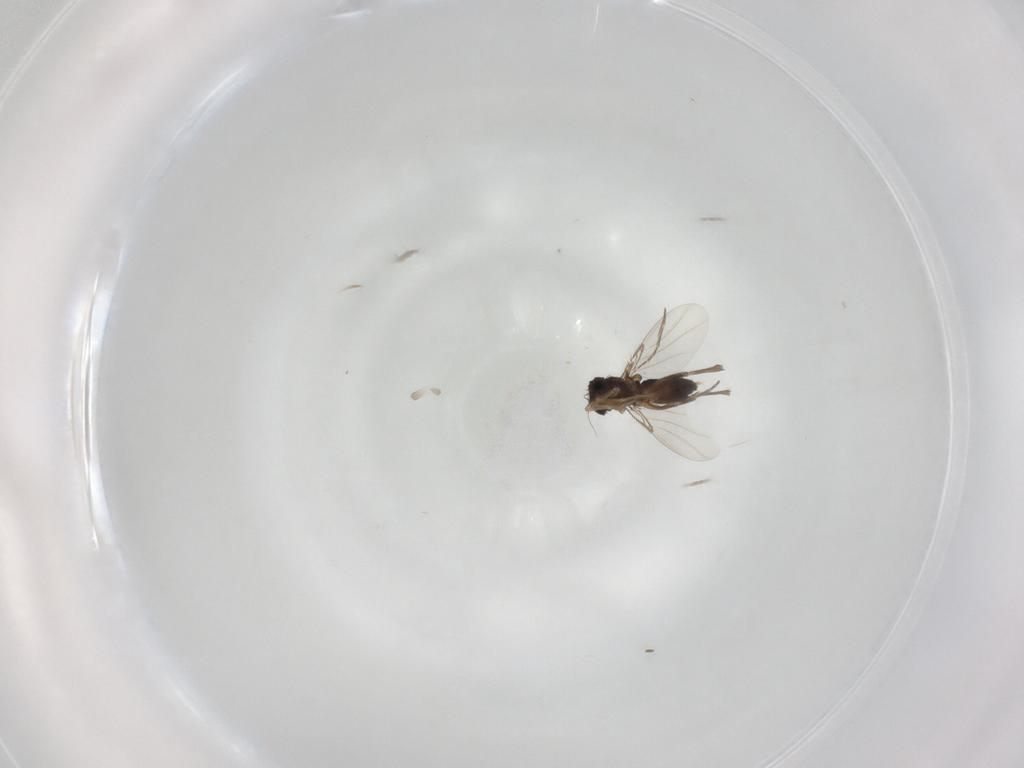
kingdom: Animalia
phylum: Arthropoda
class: Insecta
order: Diptera
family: Phoridae
